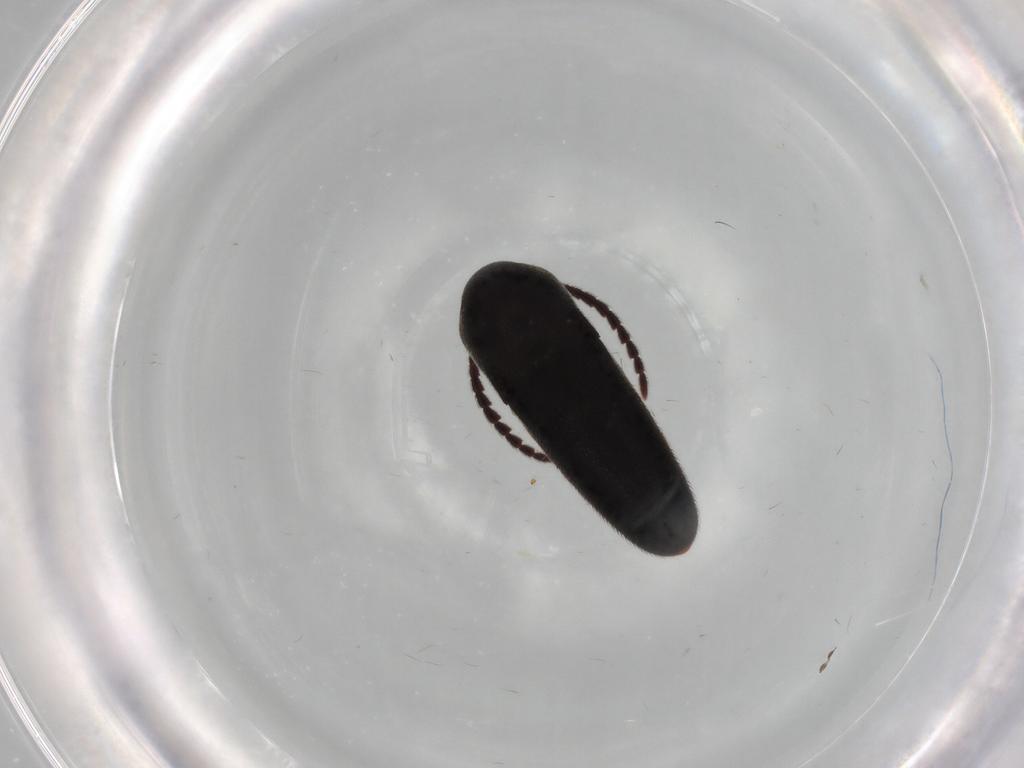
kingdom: Animalia
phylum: Arthropoda
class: Insecta
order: Coleoptera
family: Eucnemidae
